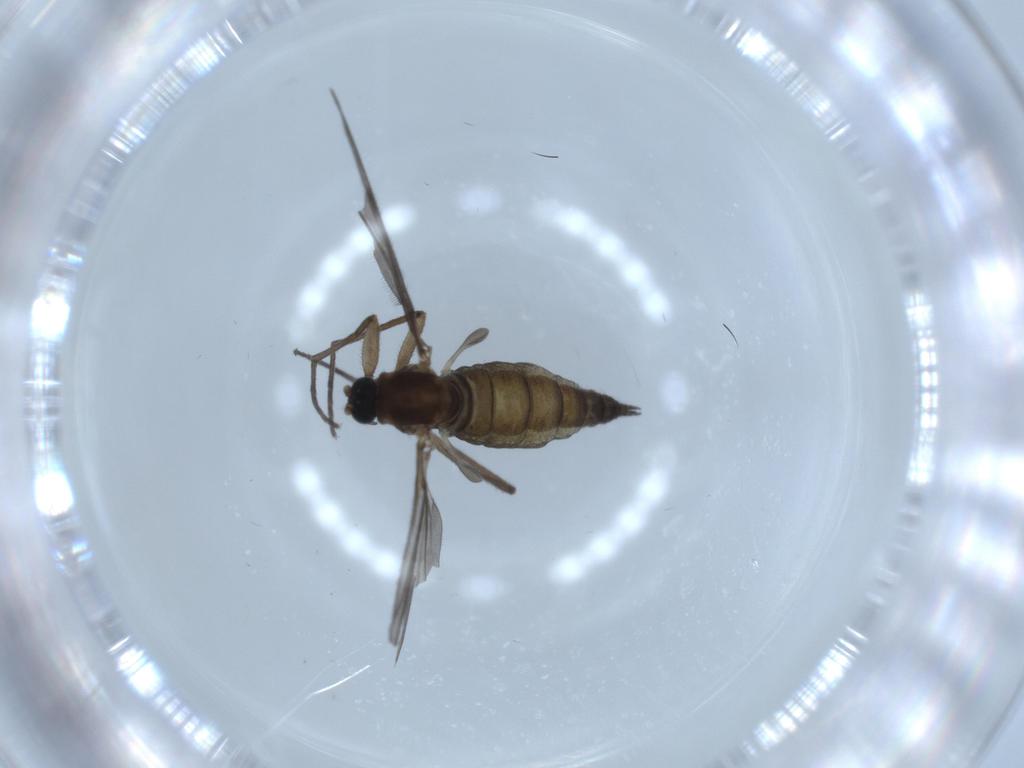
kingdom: Animalia
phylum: Arthropoda
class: Insecta
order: Diptera
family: Sciaridae
